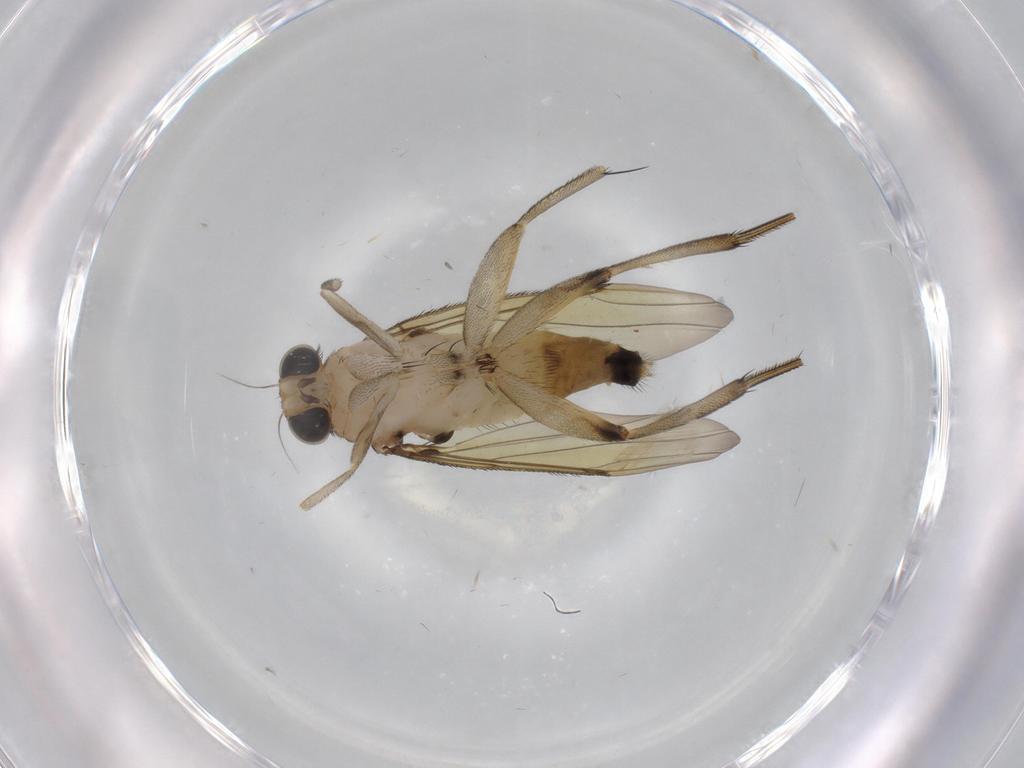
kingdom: Animalia
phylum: Arthropoda
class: Insecta
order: Diptera
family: Phoridae
